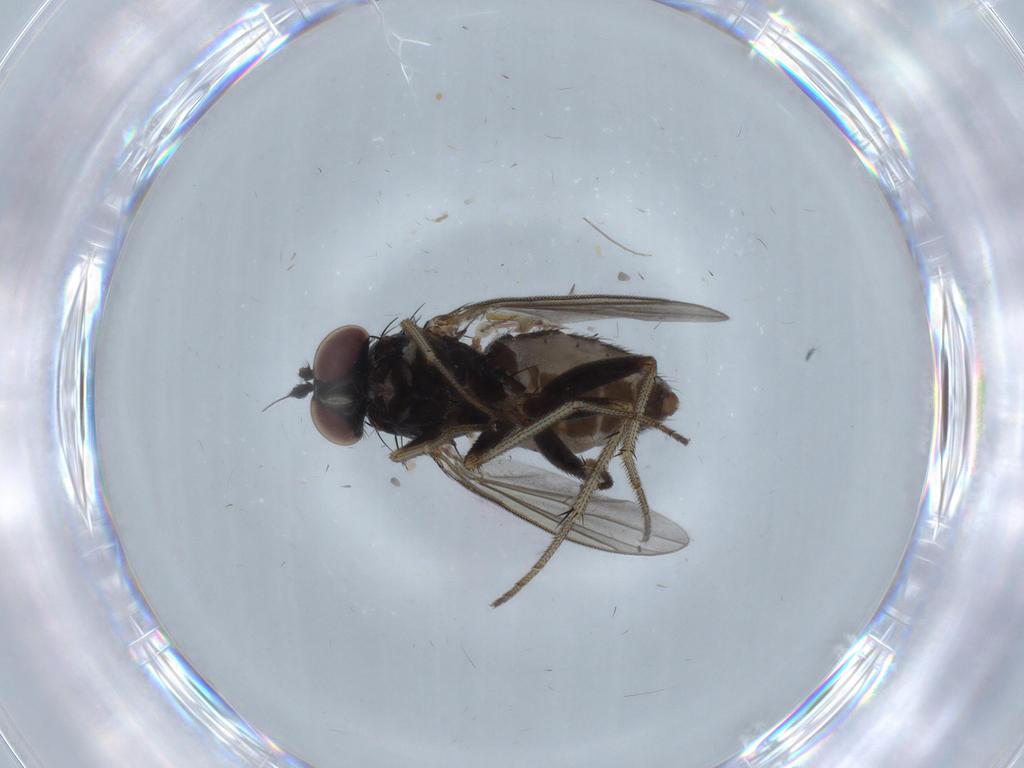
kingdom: Animalia
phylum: Arthropoda
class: Insecta
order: Diptera
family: Dolichopodidae
